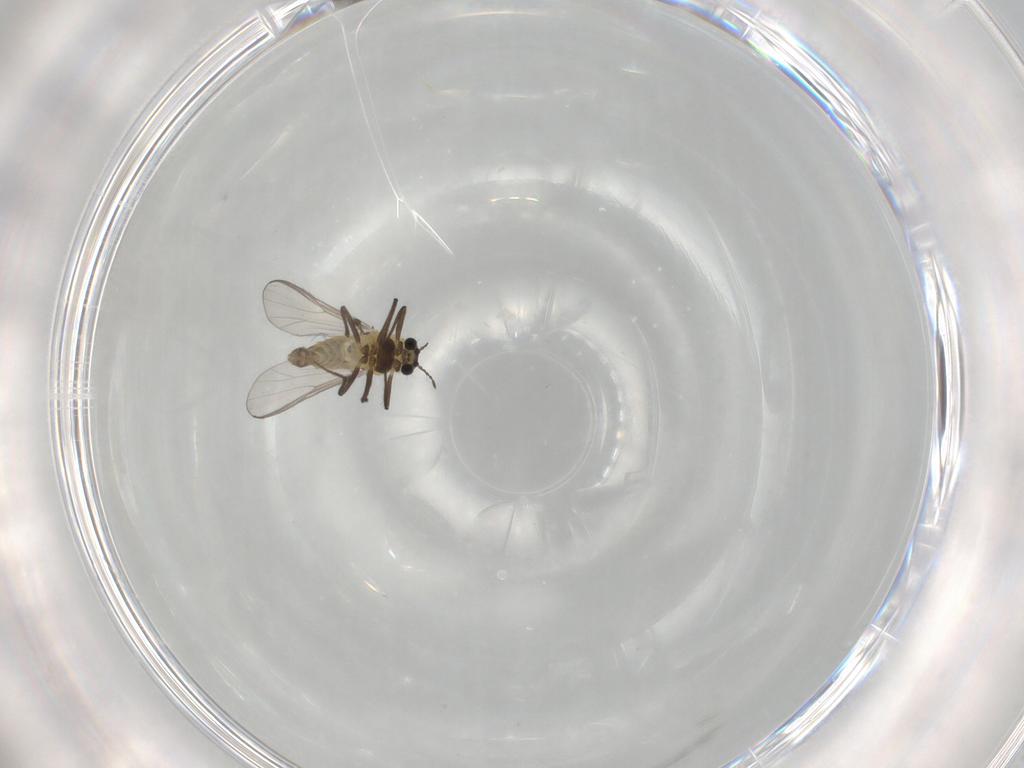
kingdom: Animalia
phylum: Arthropoda
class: Insecta
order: Diptera
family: Chironomidae
